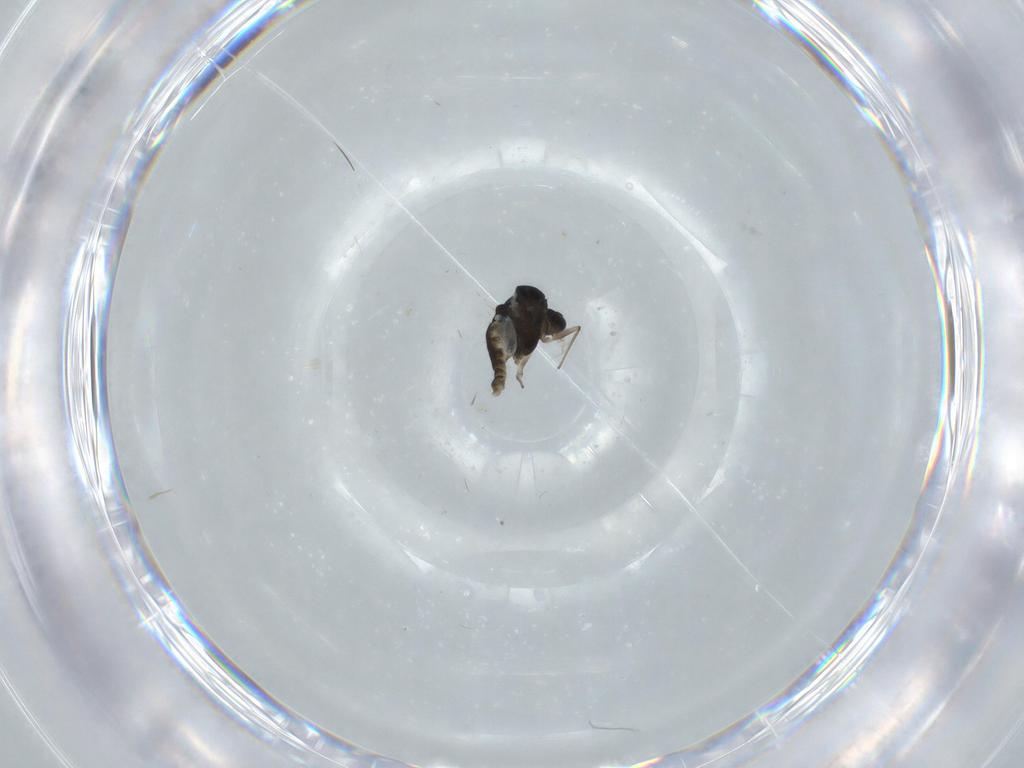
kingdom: Animalia
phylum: Arthropoda
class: Insecta
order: Diptera
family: Chironomidae
